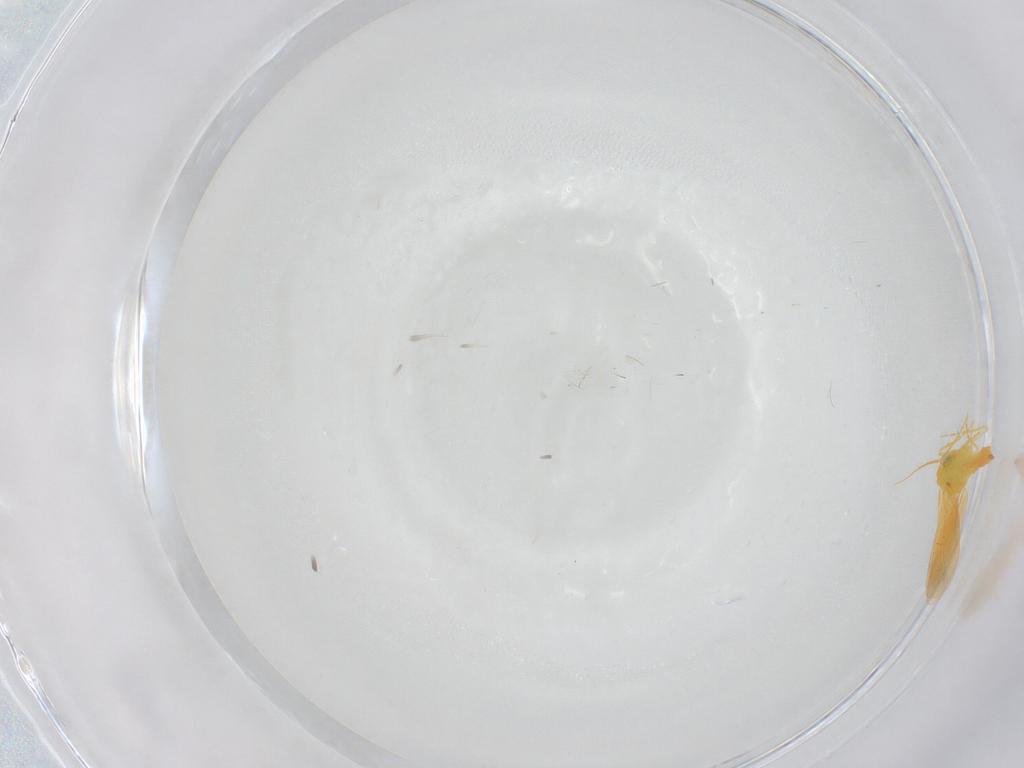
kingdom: Animalia
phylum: Arthropoda
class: Insecta
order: Hemiptera
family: Aleyrodidae
